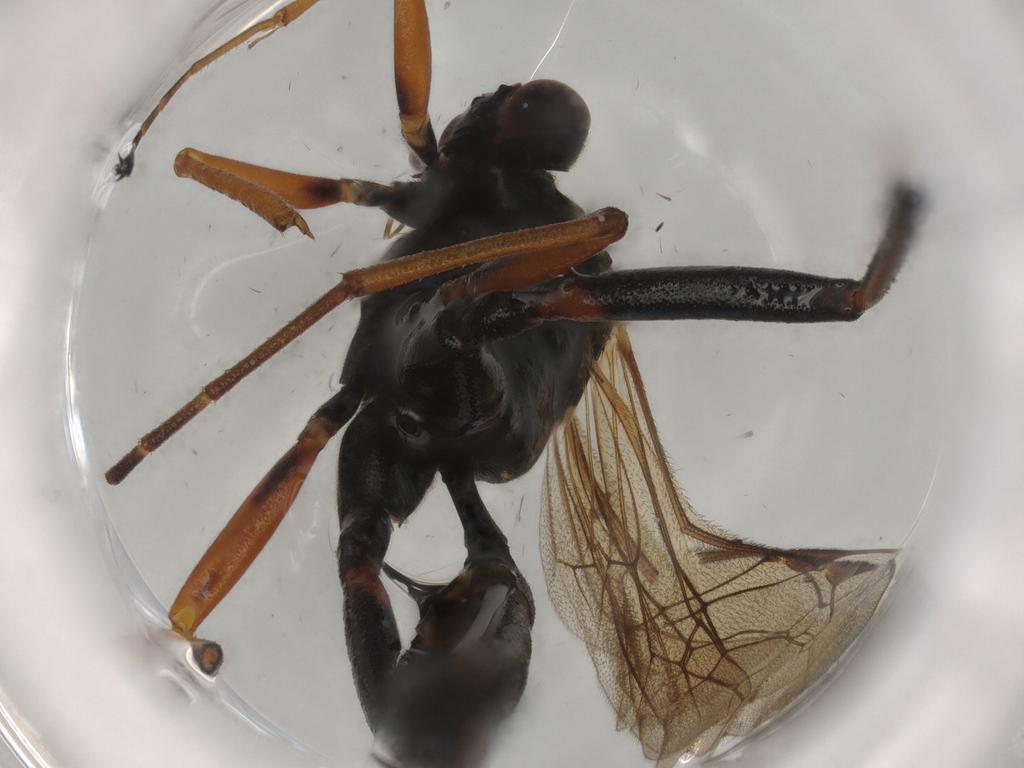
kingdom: Animalia
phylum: Arthropoda
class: Insecta
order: Hymenoptera
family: Ichneumonidae
